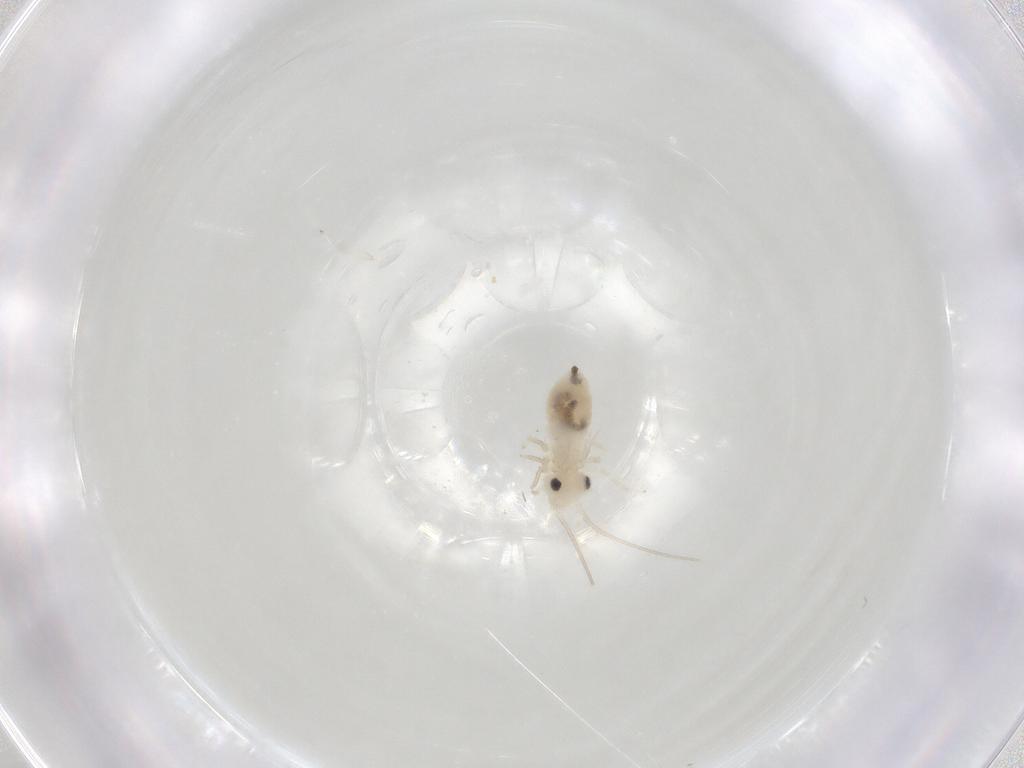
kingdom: Animalia
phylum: Arthropoda
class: Insecta
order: Psocodea
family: Caeciliusidae
